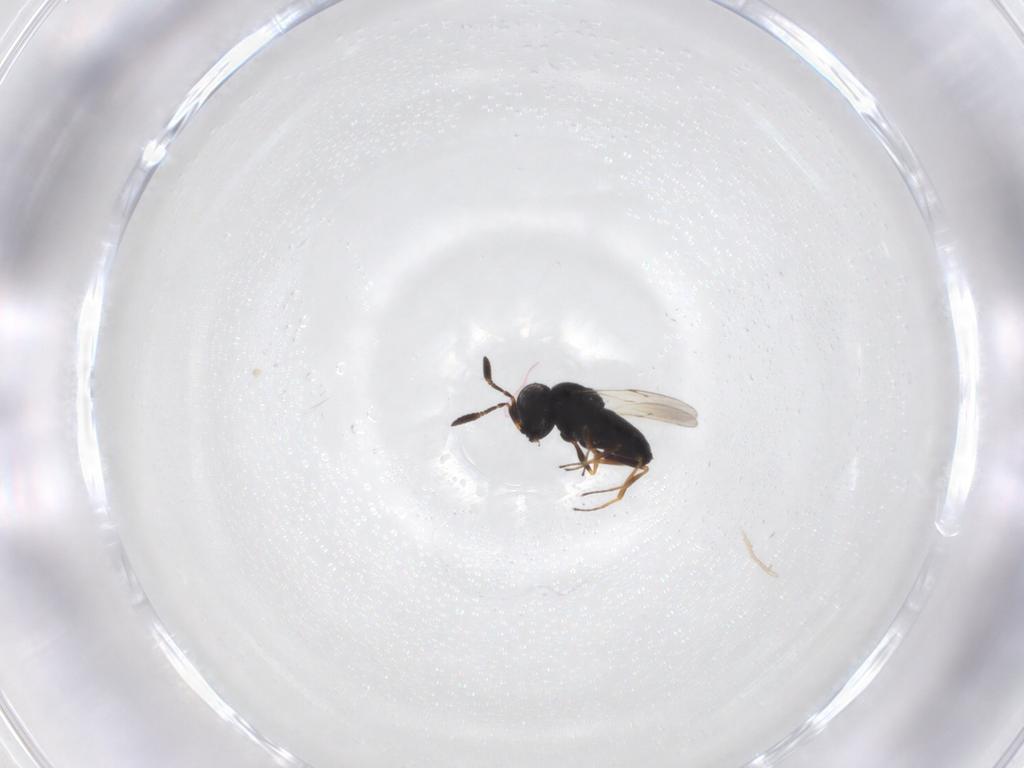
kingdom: Animalia
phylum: Arthropoda
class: Insecta
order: Hymenoptera
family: Scelionidae
